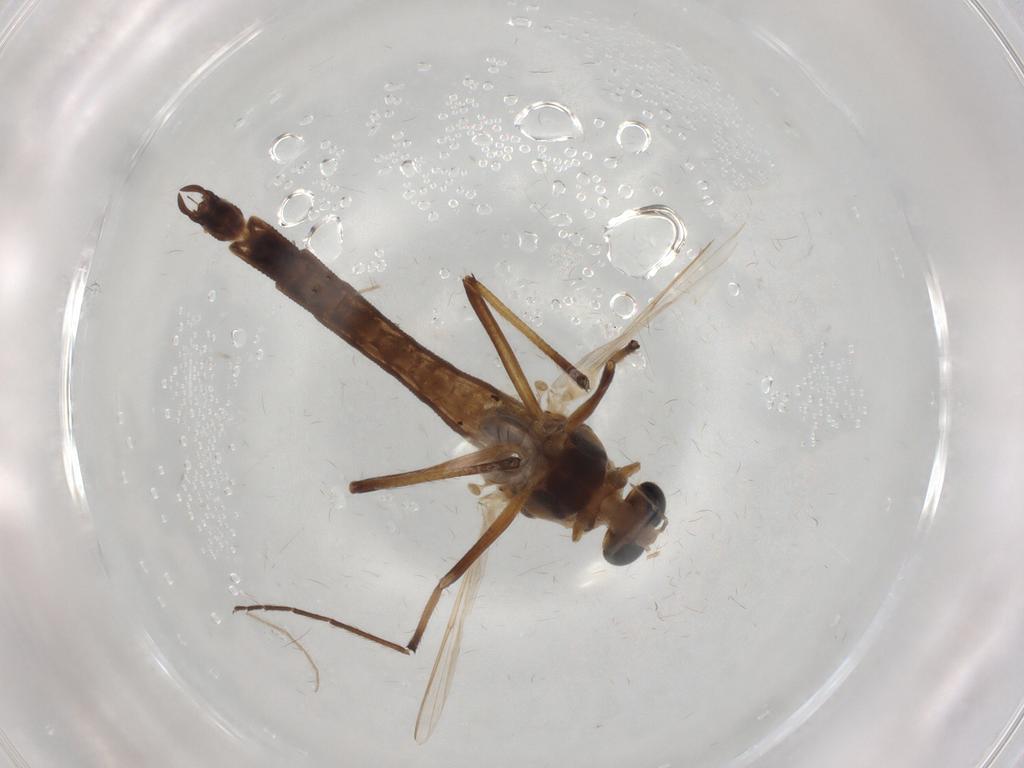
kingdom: Animalia
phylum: Arthropoda
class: Insecta
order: Diptera
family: Chironomidae
